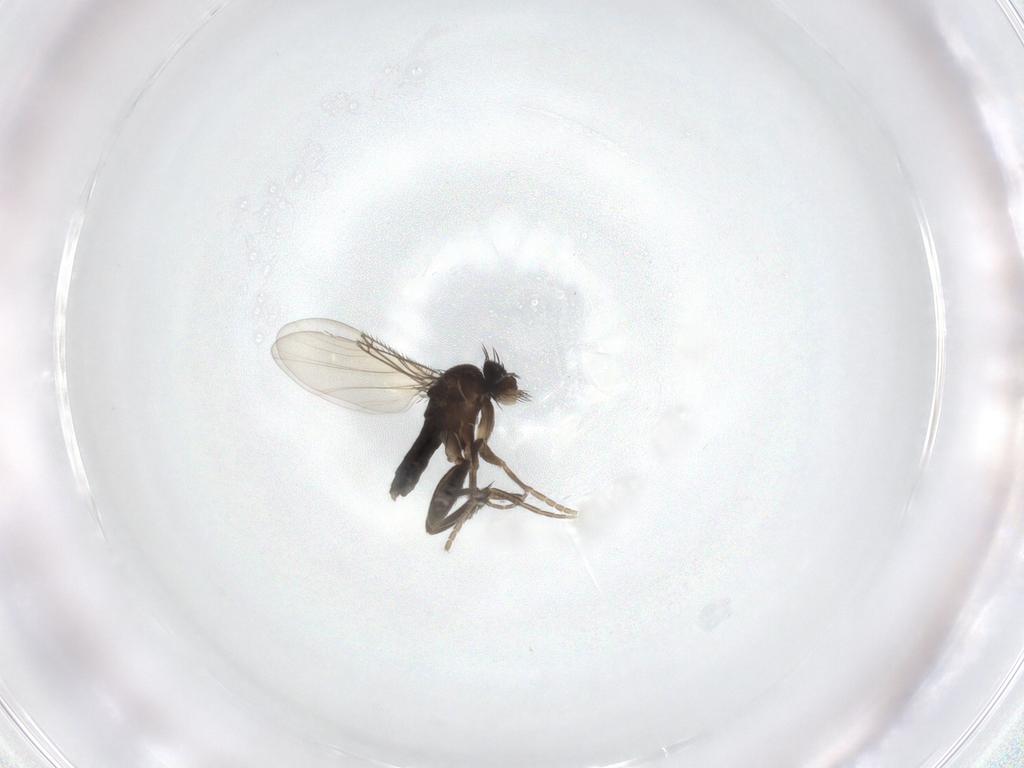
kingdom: Animalia
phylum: Arthropoda
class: Insecta
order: Diptera
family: Phoridae
